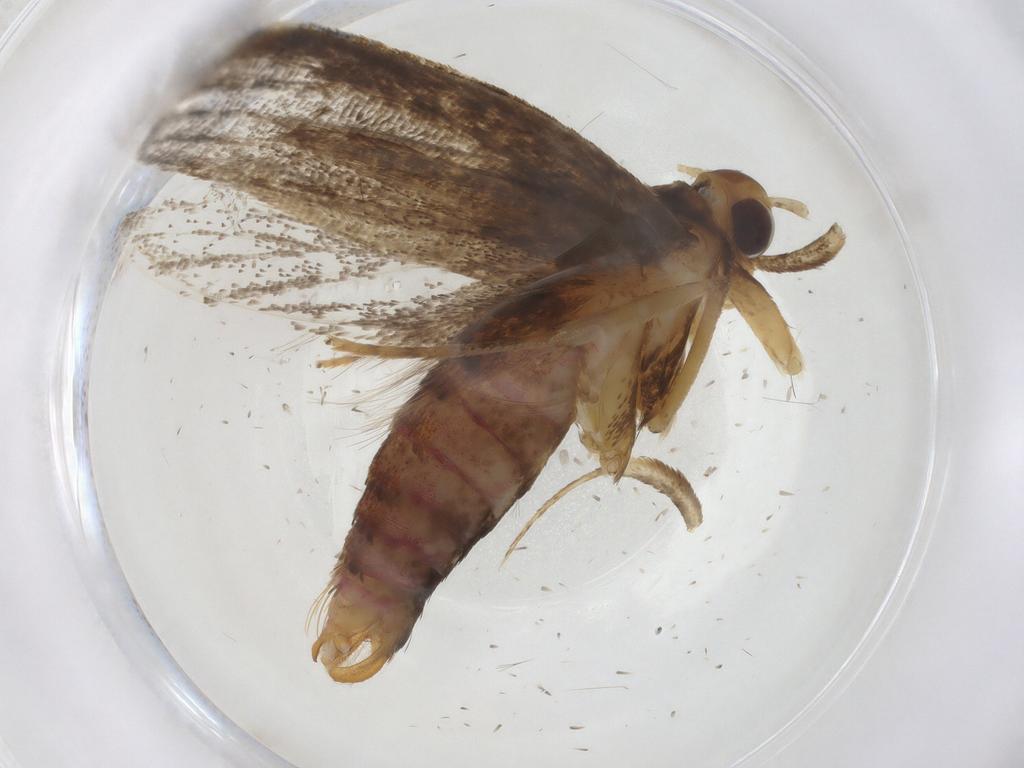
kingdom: Animalia
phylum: Arthropoda
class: Insecta
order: Lepidoptera
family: Lecithoceridae
